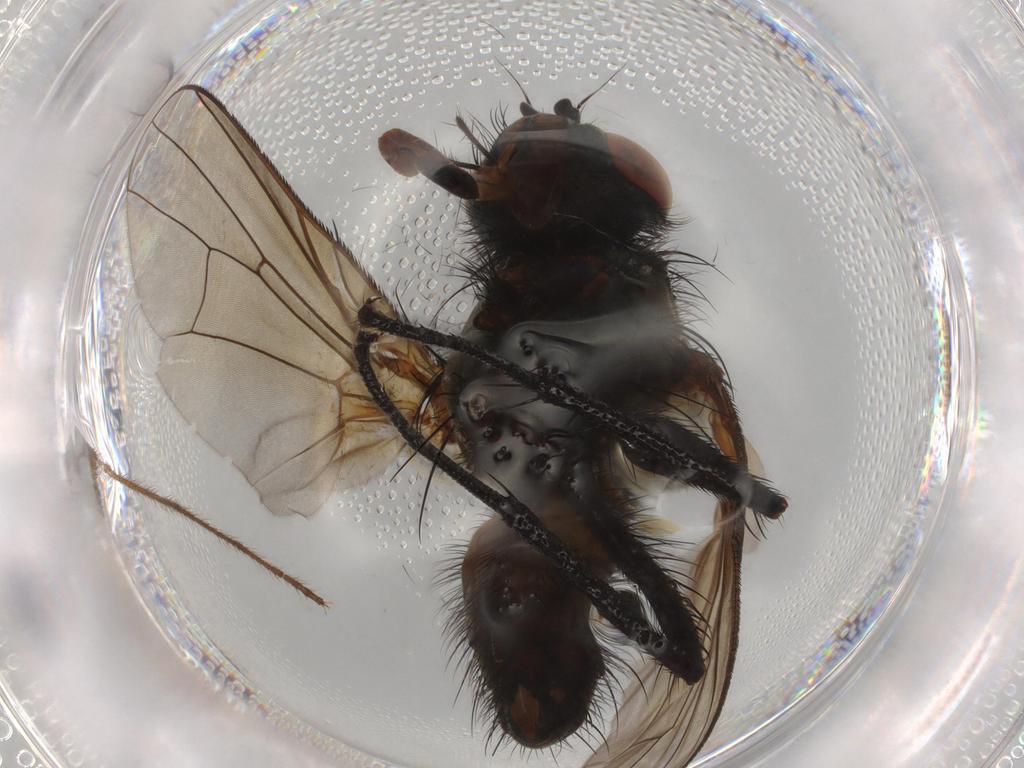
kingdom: Animalia
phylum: Arthropoda
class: Insecta
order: Diptera
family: Limoniidae
